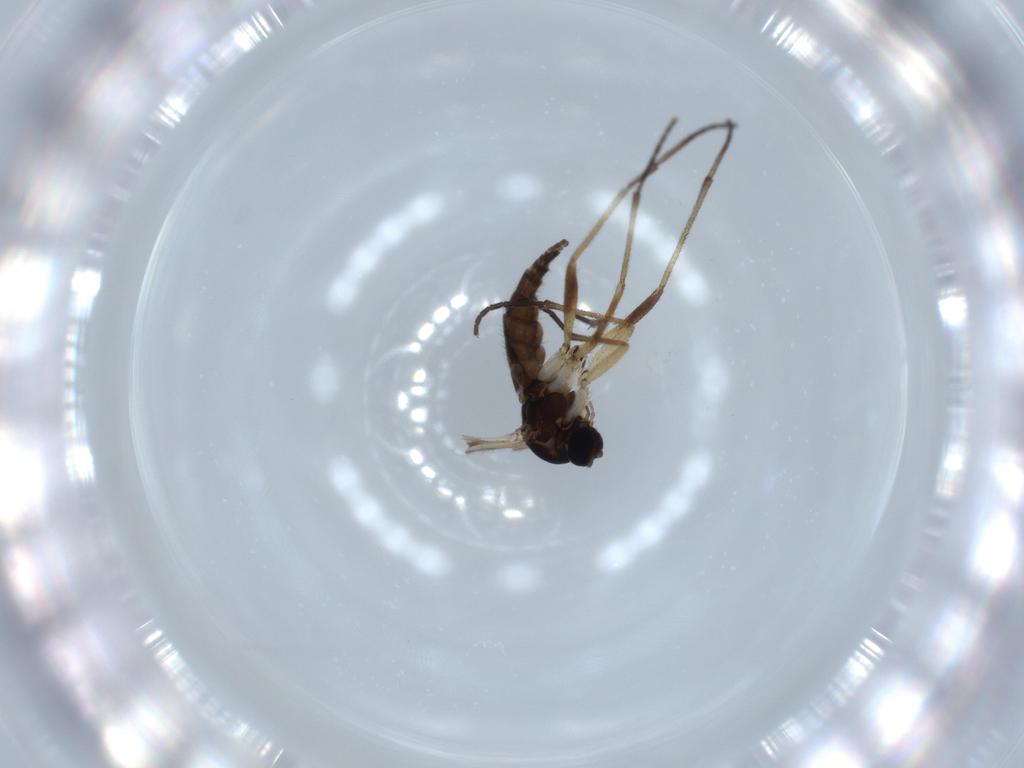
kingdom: Animalia
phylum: Arthropoda
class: Insecta
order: Diptera
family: Sciaridae
